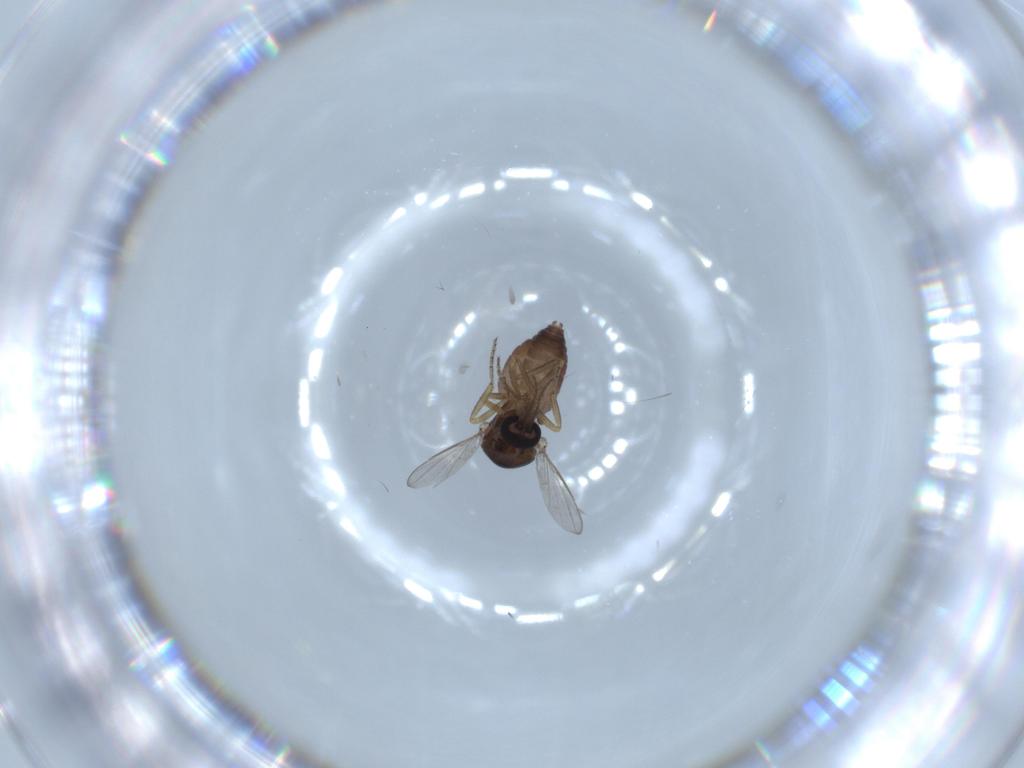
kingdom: Animalia
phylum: Arthropoda
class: Insecta
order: Diptera
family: Ceratopogonidae
